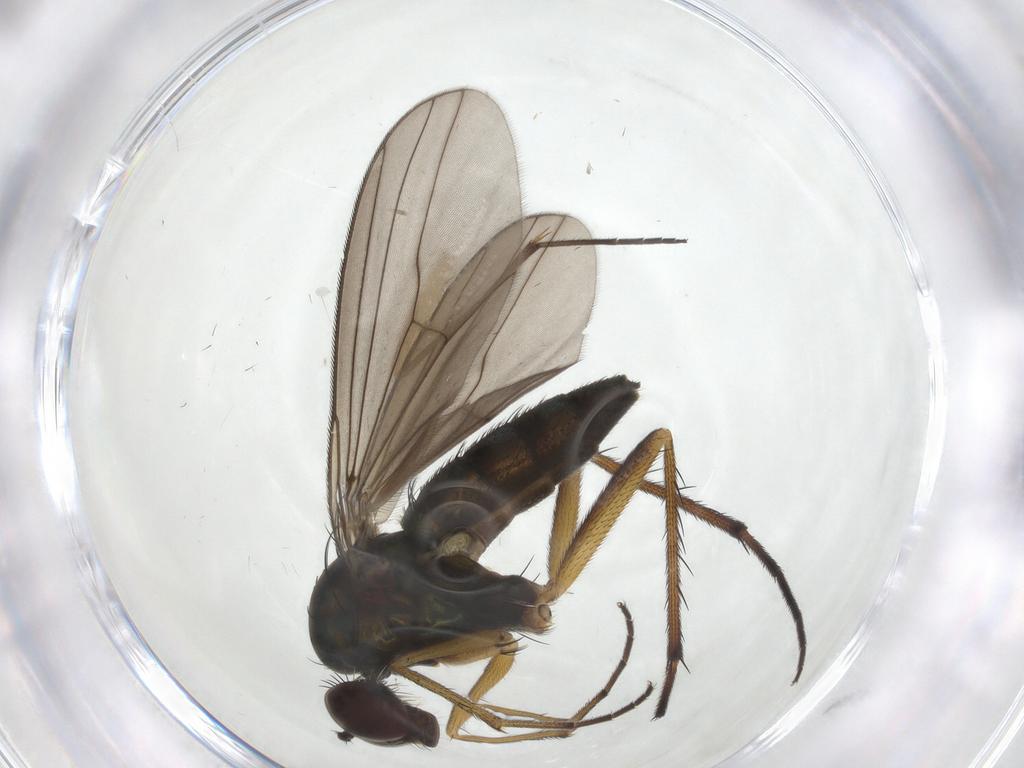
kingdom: Animalia
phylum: Arthropoda
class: Insecta
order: Diptera
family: Dolichopodidae
